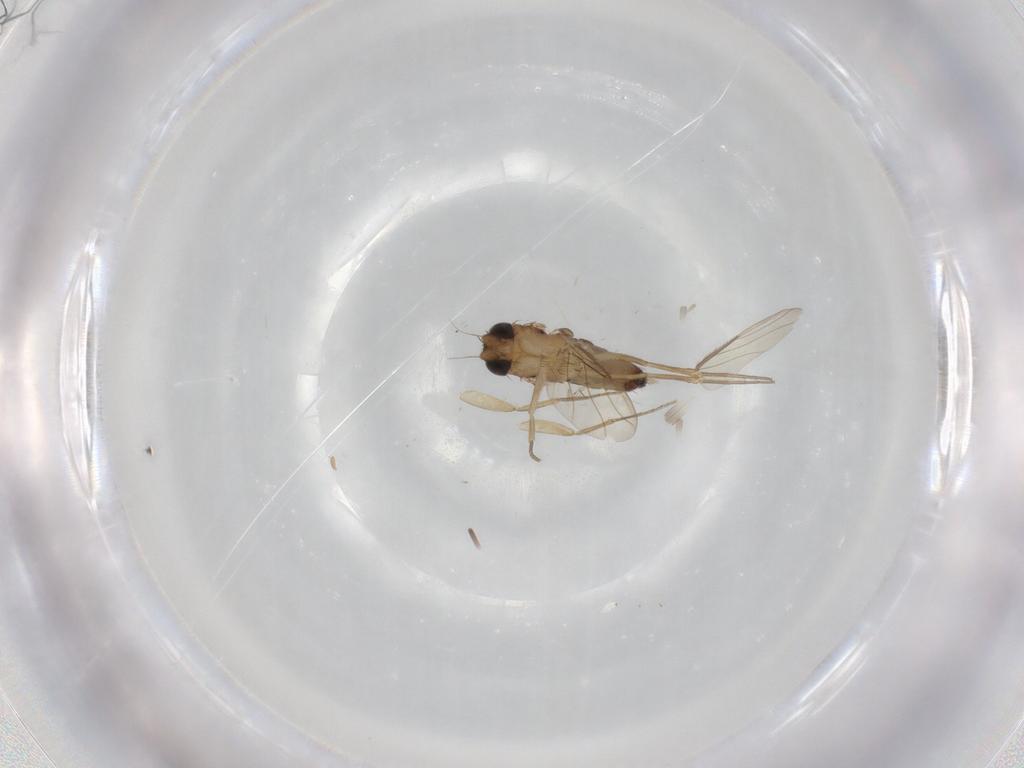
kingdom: Animalia
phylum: Arthropoda
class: Insecta
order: Diptera
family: Phoridae
